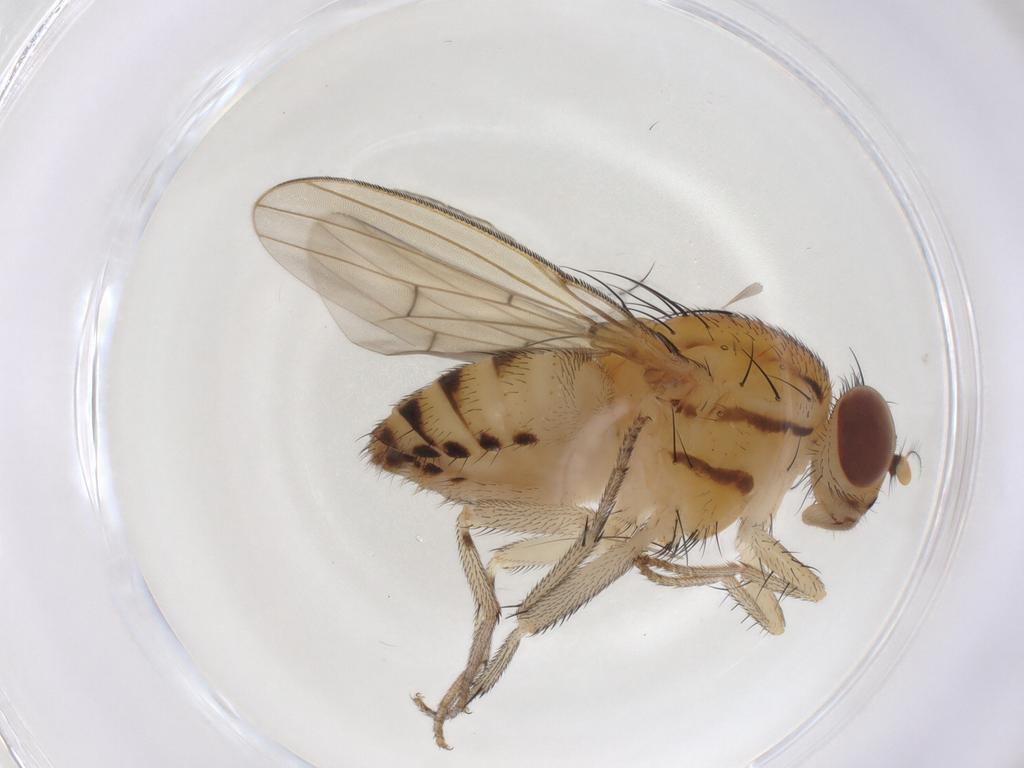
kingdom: Animalia
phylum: Arthropoda
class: Insecta
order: Diptera
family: Lauxaniidae
